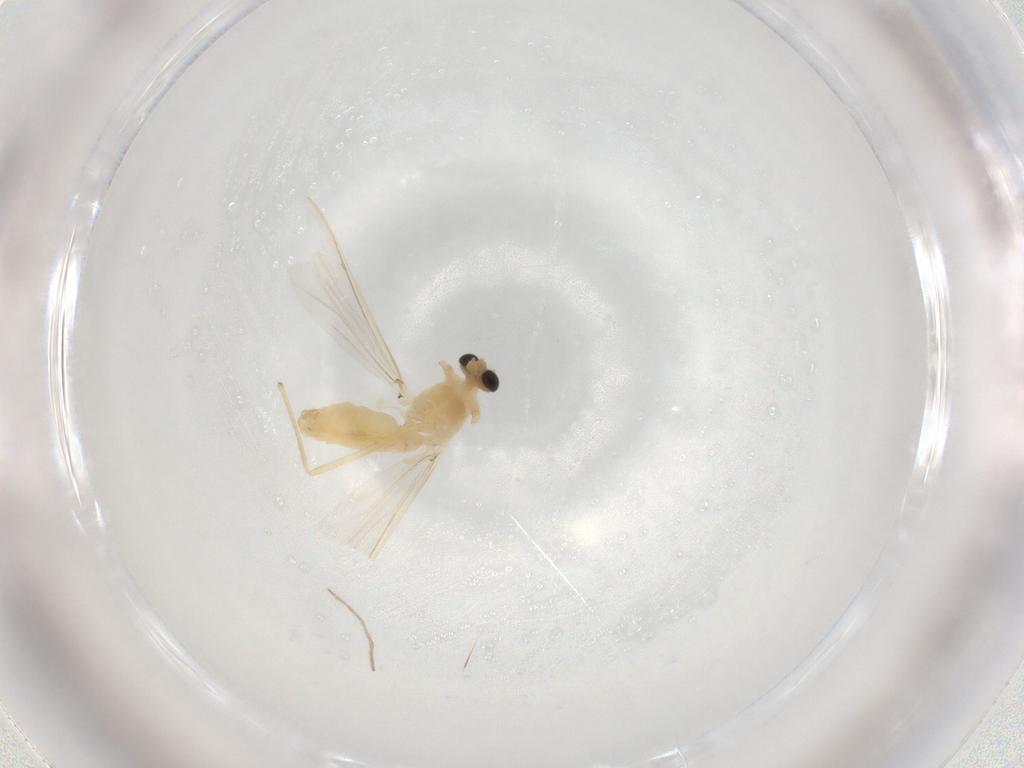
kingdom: Animalia
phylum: Arthropoda
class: Insecta
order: Diptera
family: Chironomidae
